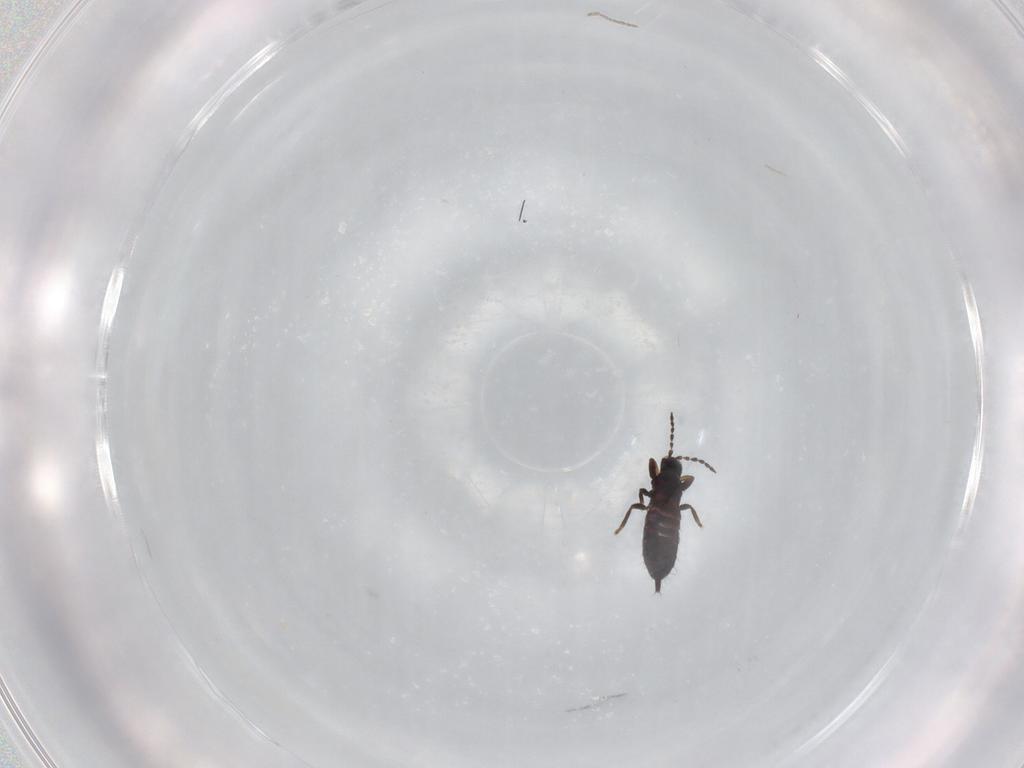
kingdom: Animalia
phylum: Arthropoda
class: Insecta
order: Thysanoptera
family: Phlaeothripidae
